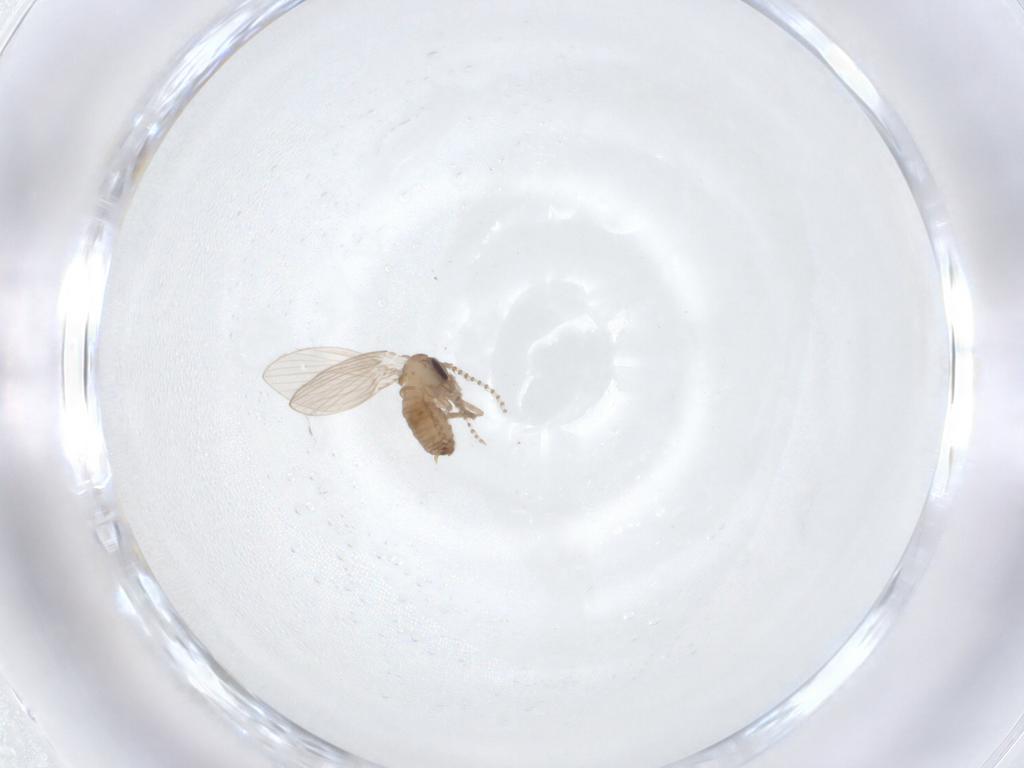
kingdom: Animalia
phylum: Arthropoda
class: Insecta
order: Diptera
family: Psychodidae
